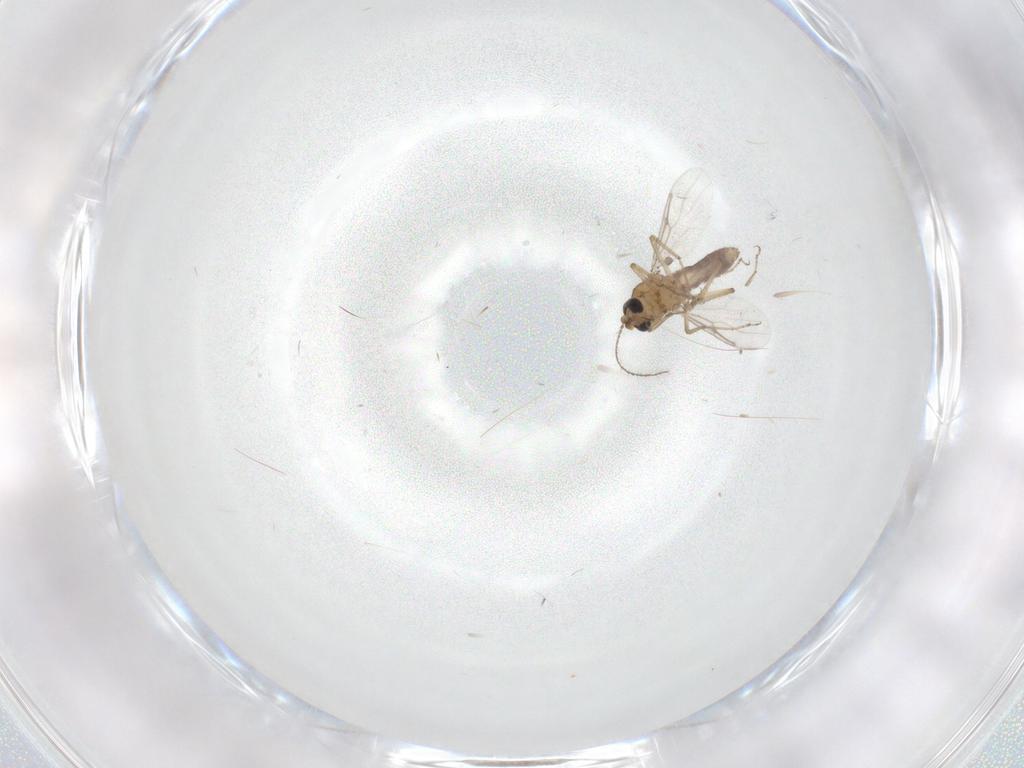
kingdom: Animalia
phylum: Arthropoda
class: Insecta
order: Diptera
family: Ceratopogonidae
